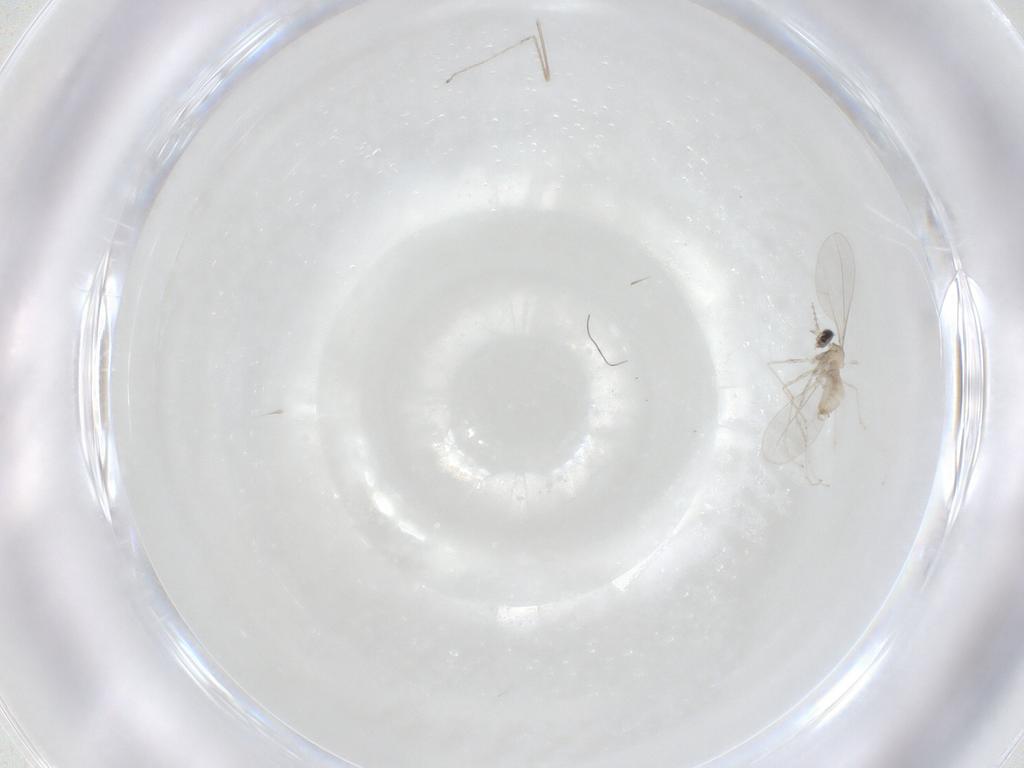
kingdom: Animalia
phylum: Arthropoda
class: Insecta
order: Diptera
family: Cecidomyiidae
